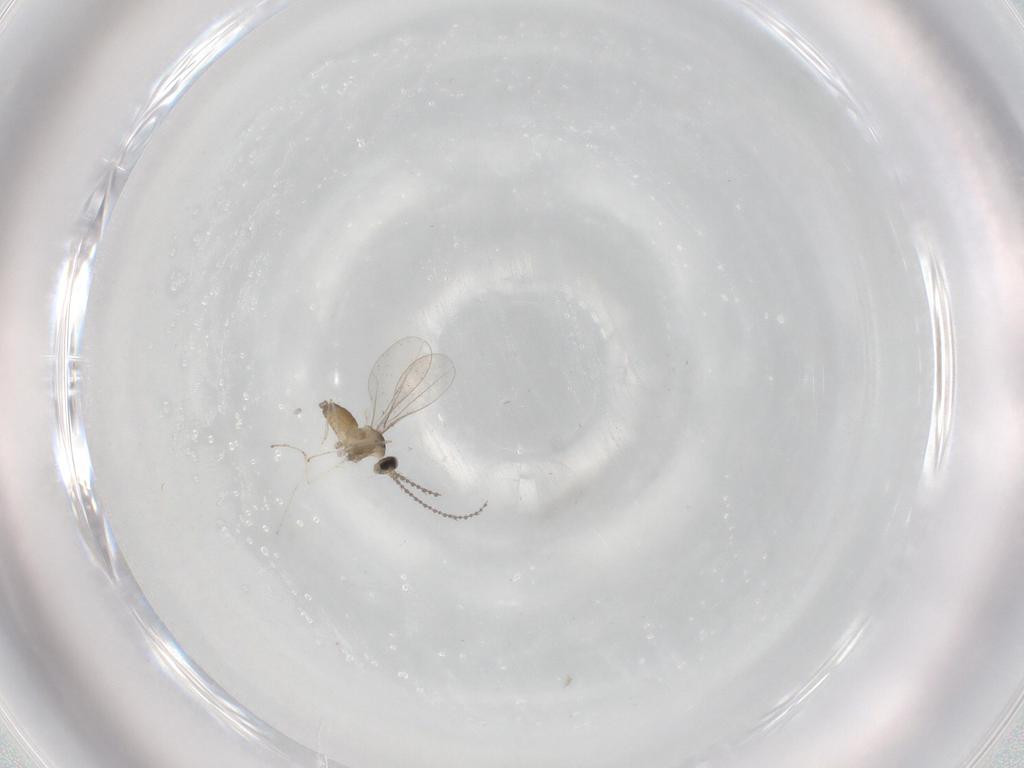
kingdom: Animalia
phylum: Arthropoda
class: Insecta
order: Diptera
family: Cecidomyiidae
